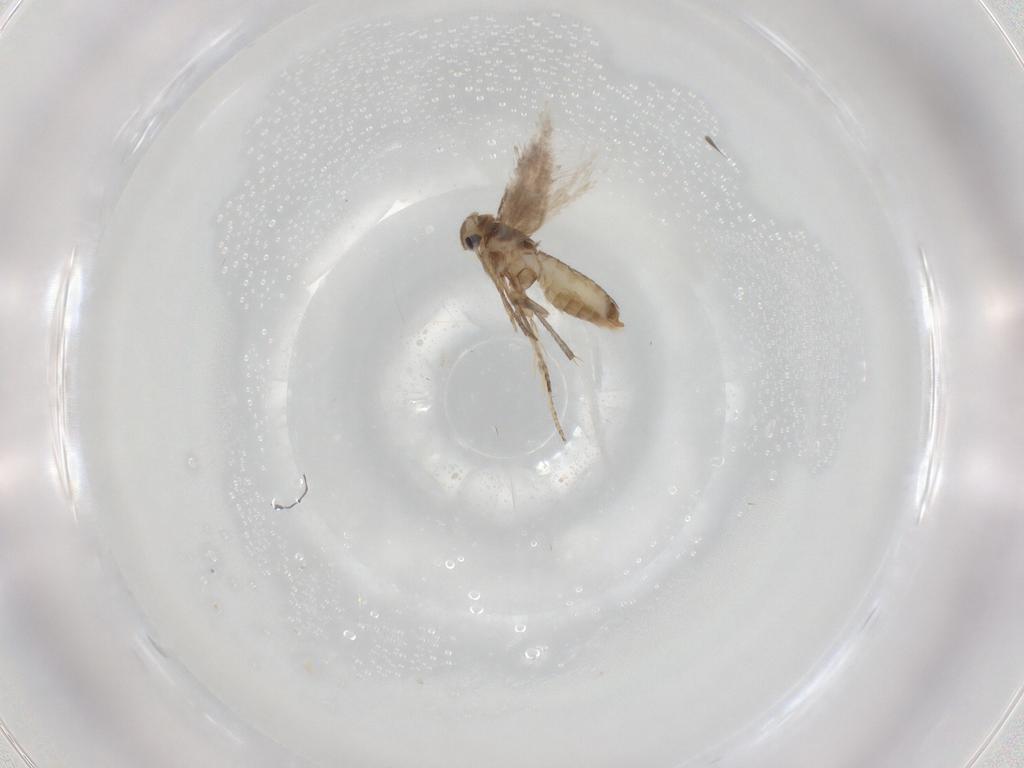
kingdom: Animalia
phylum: Arthropoda
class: Insecta
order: Lepidoptera
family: Nymphalidae
